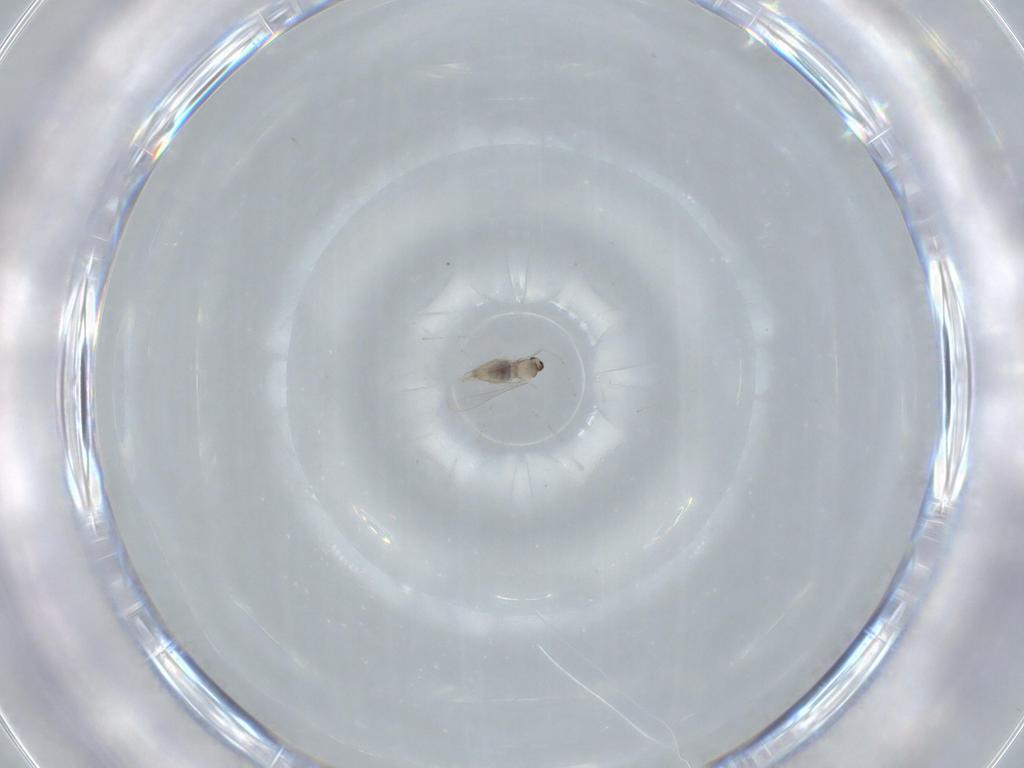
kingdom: Animalia
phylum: Arthropoda
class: Insecta
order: Diptera
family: Cecidomyiidae
